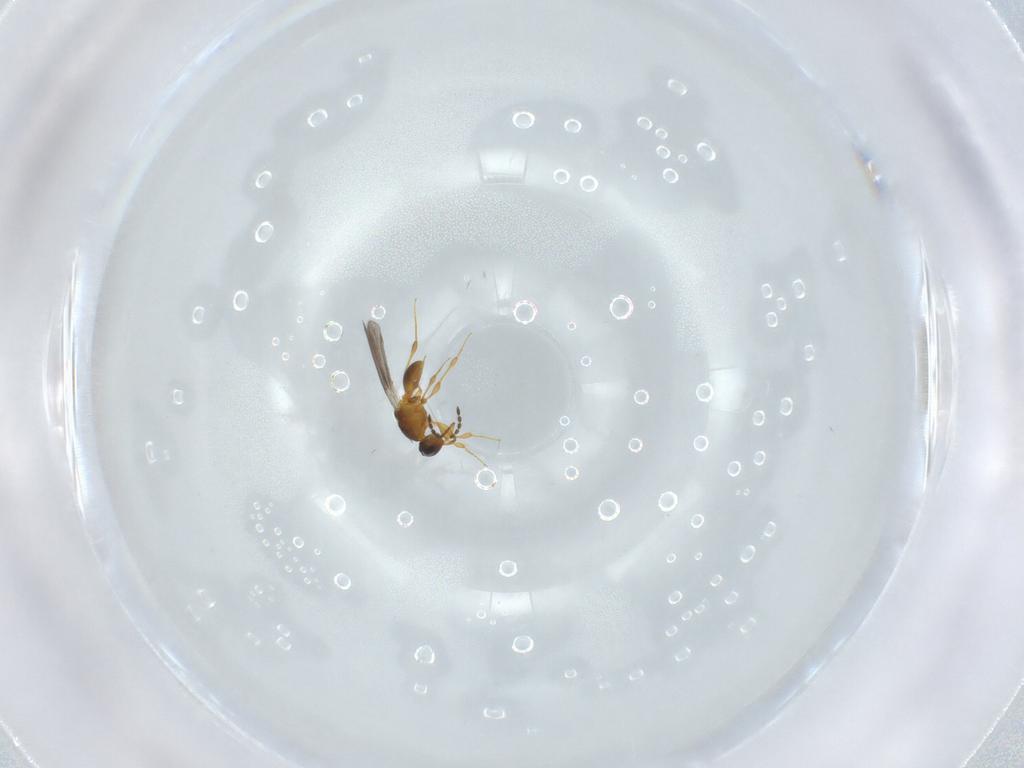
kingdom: Animalia
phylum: Arthropoda
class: Insecta
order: Hymenoptera
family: Platygastridae
